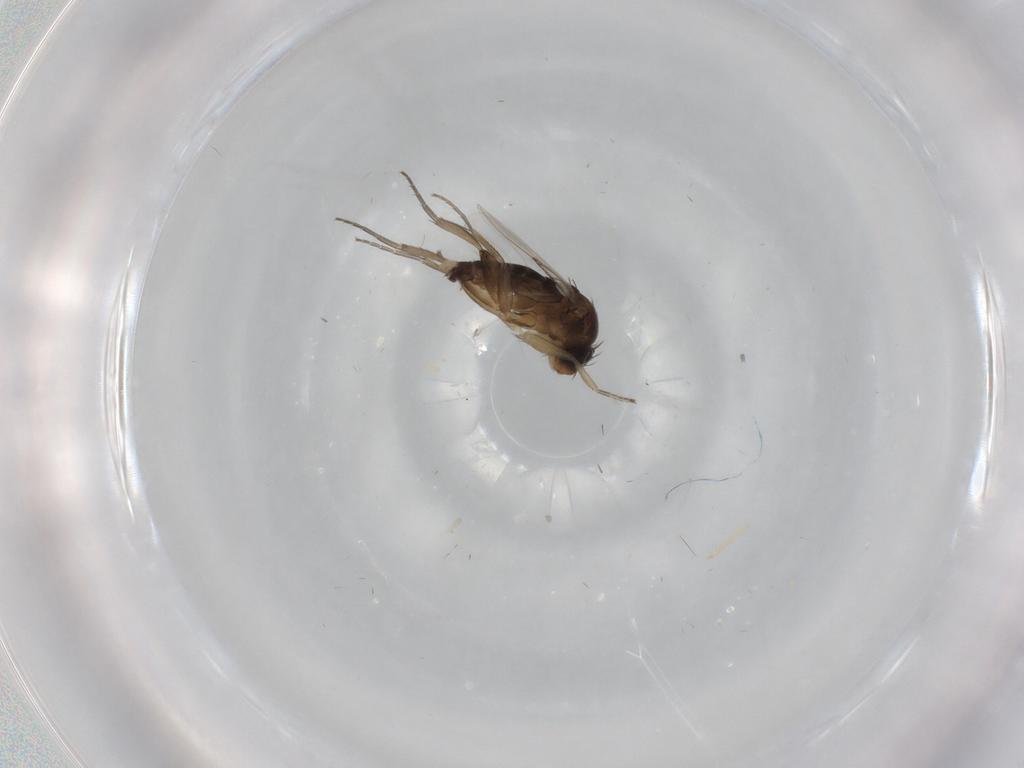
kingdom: Animalia
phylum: Arthropoda
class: Insecta
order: Diptera
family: Phoridae
